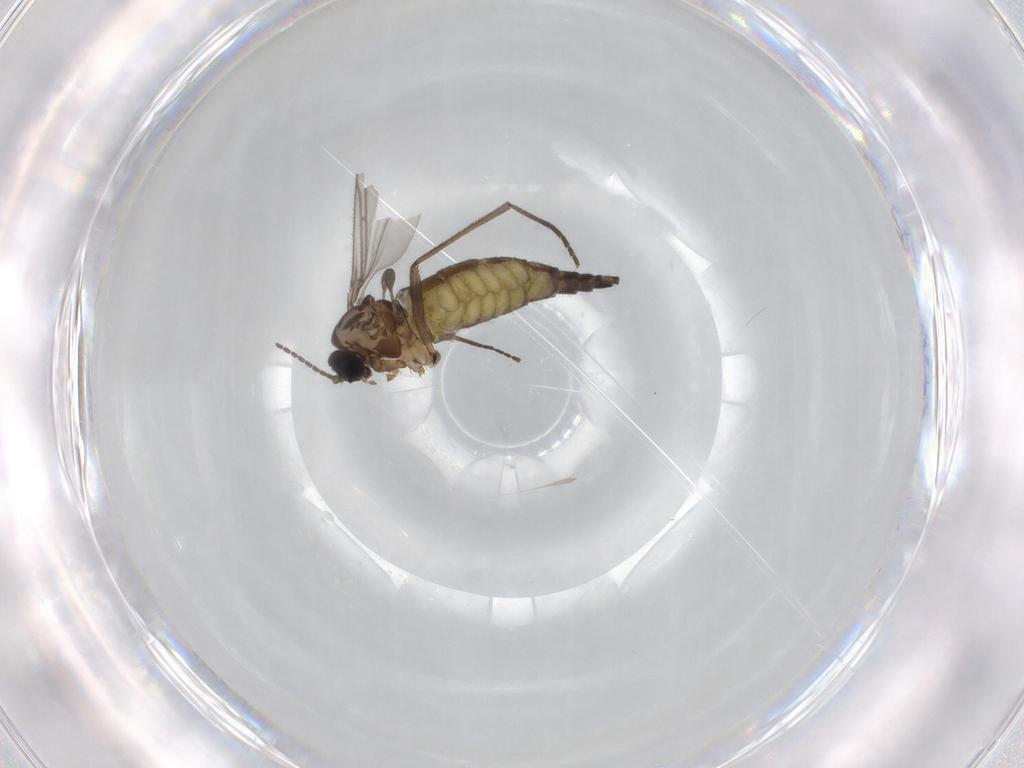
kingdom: Animalia
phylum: Arthropoda
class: Insecta
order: Diptera
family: Sciaridae
